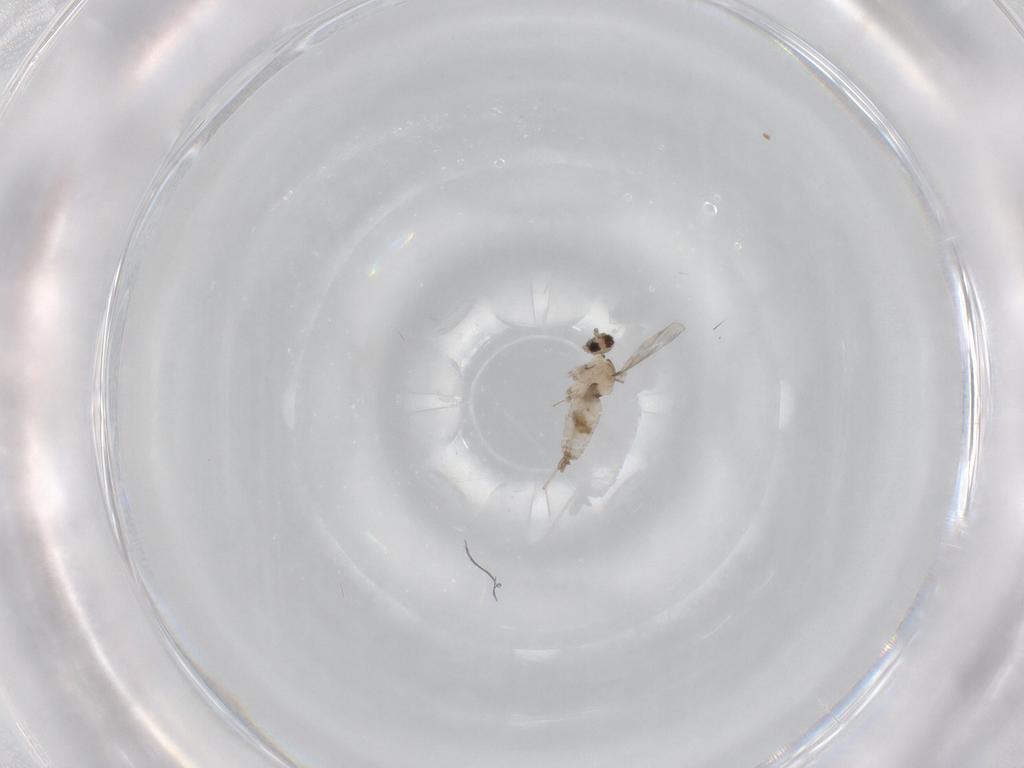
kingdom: Animalia
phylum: Arthropoda
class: Insecta
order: Diptera
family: Cecidomyiidae
